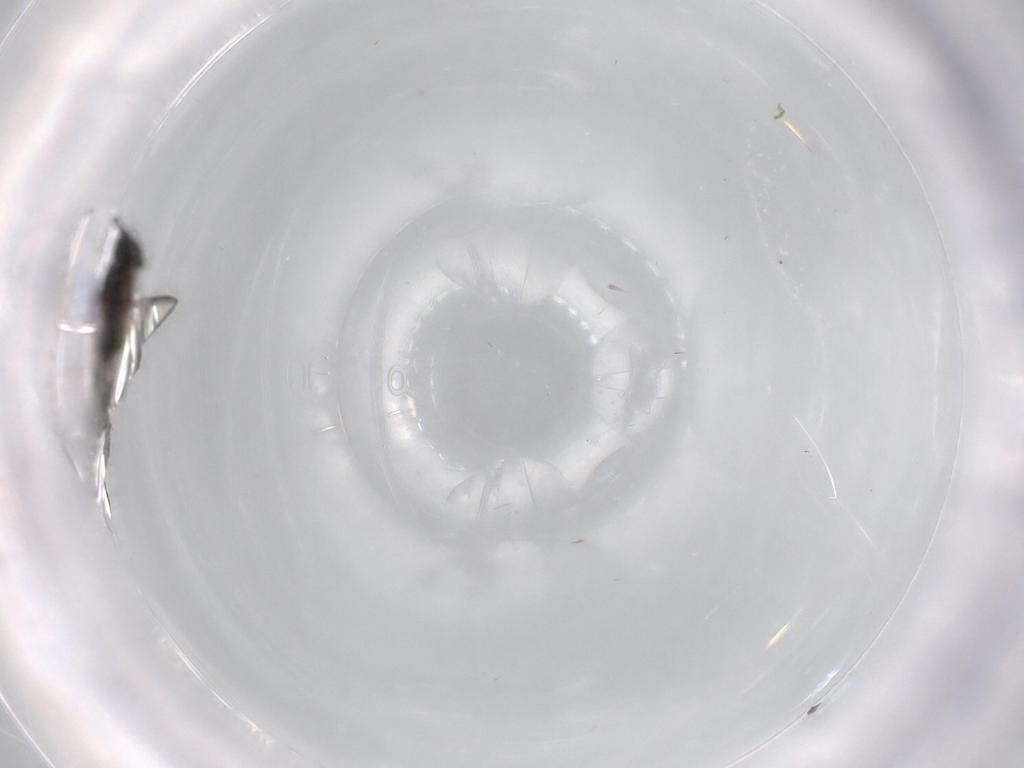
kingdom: Animalia
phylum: Arthropoda
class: Insecta
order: Diptera
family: Sciaridae
